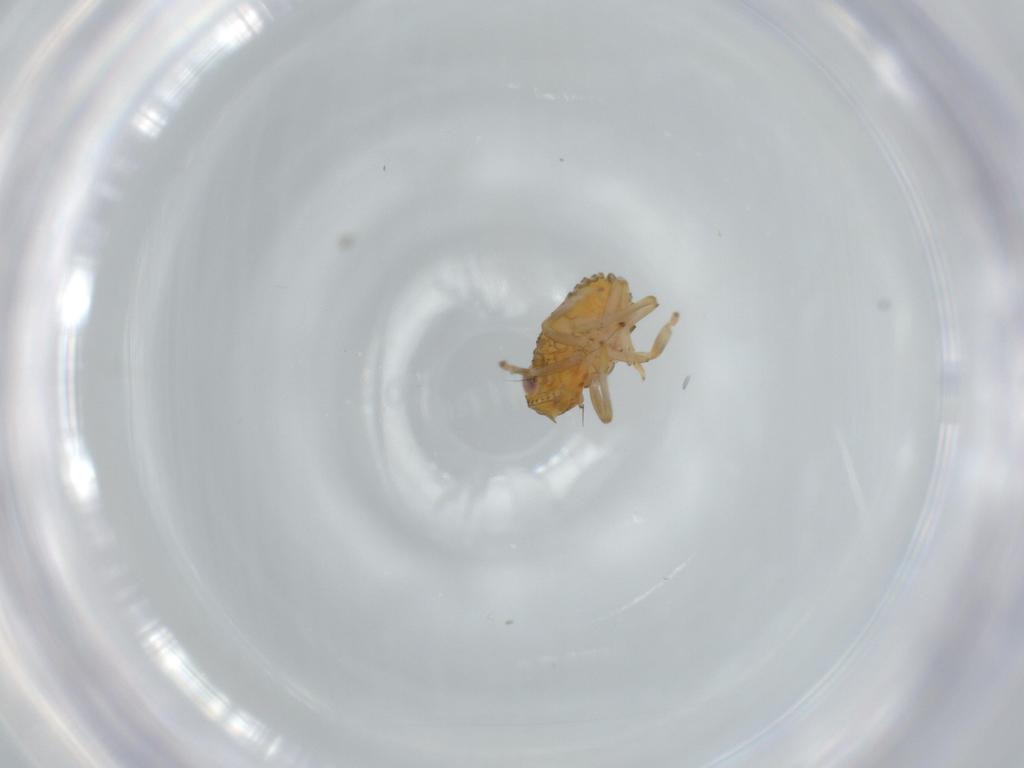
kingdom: Animalia
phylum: Arthropoda
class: Insecta
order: Hemiptera
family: Issidae
